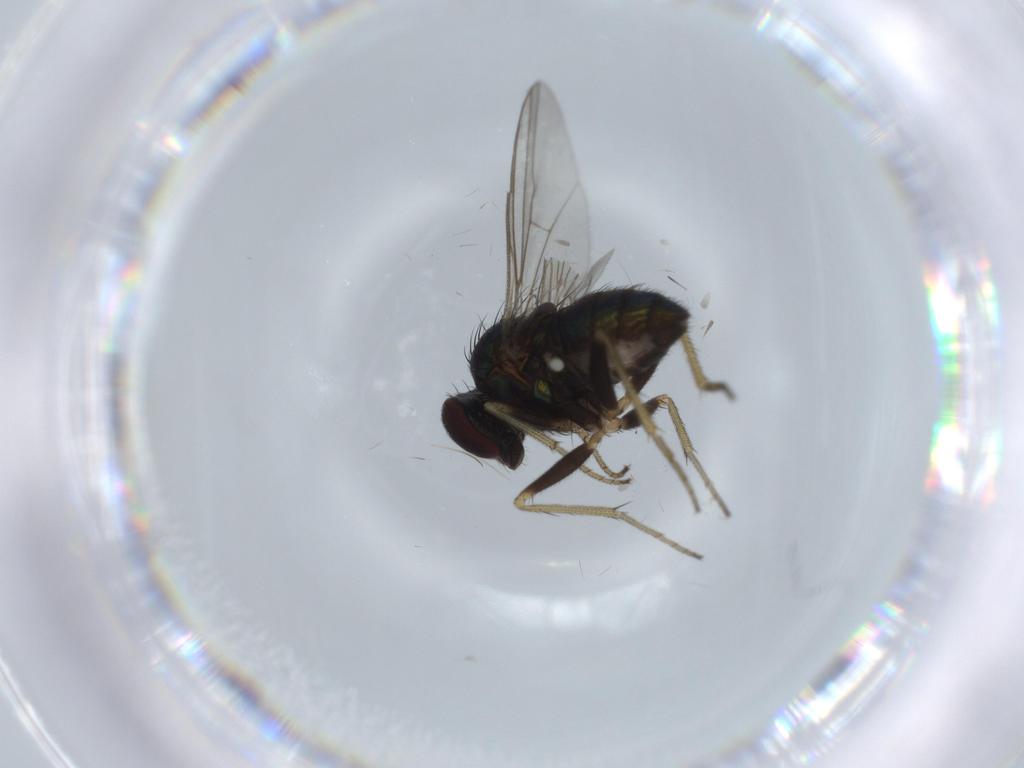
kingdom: Animalia
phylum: Arthropoda
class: Insecta
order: Diptera
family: Dolichopodidae
